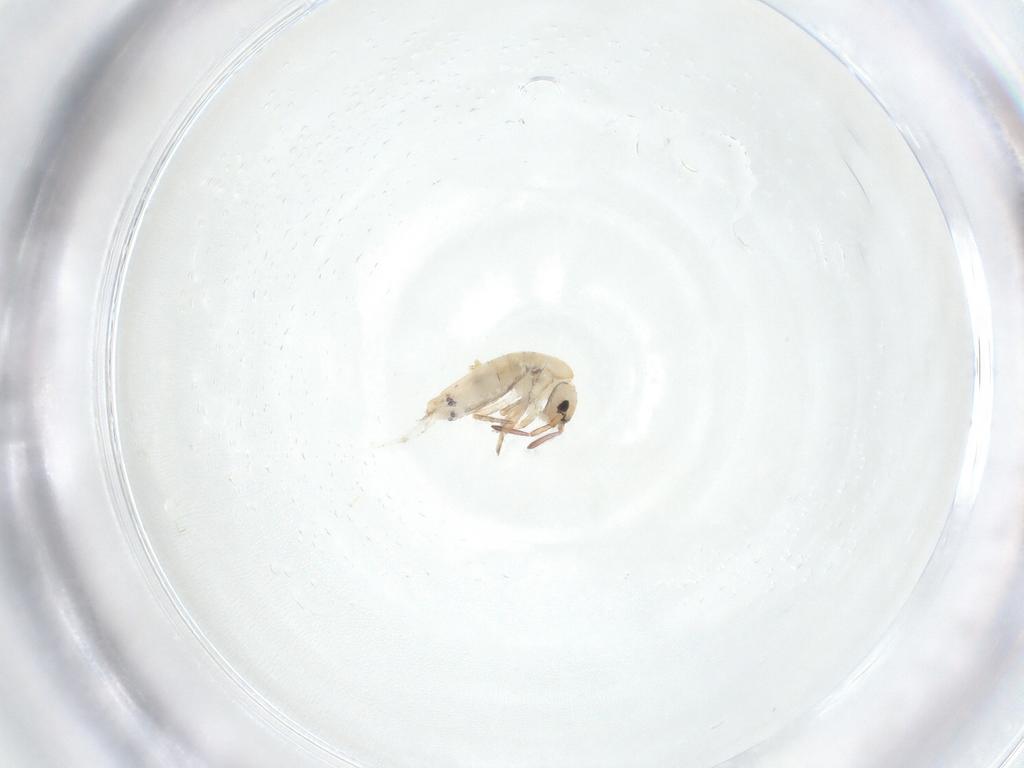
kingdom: Animalia
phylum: Arthropoda
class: Collembola
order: Entomobryomorpha
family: Entomobryidae
